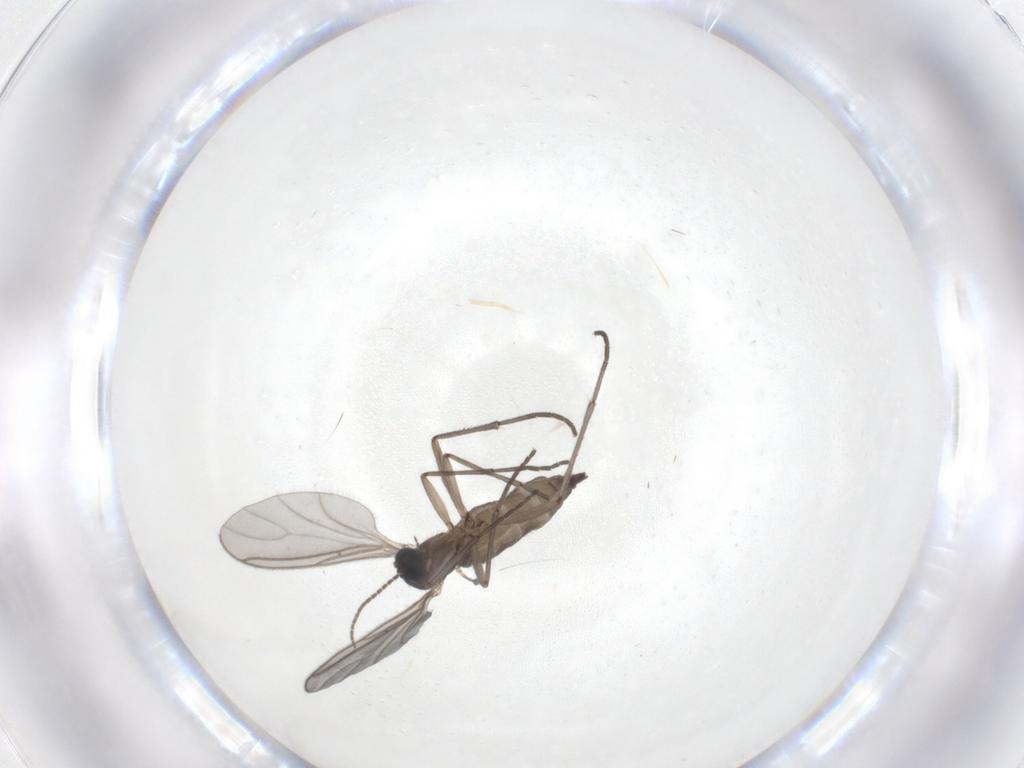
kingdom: Animalia
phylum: Arthropoda
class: Insecta
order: Diptera
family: Sciaridae
